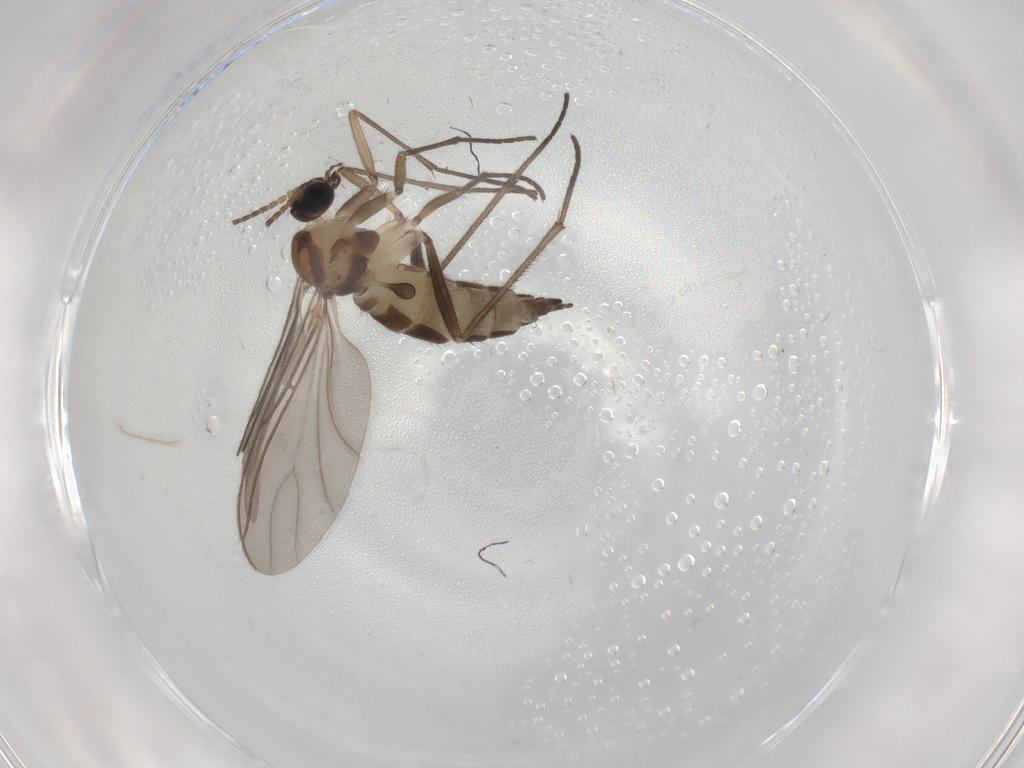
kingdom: Animalia
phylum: Arthropoda
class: Insecta
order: Diptera
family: Sciaridae
